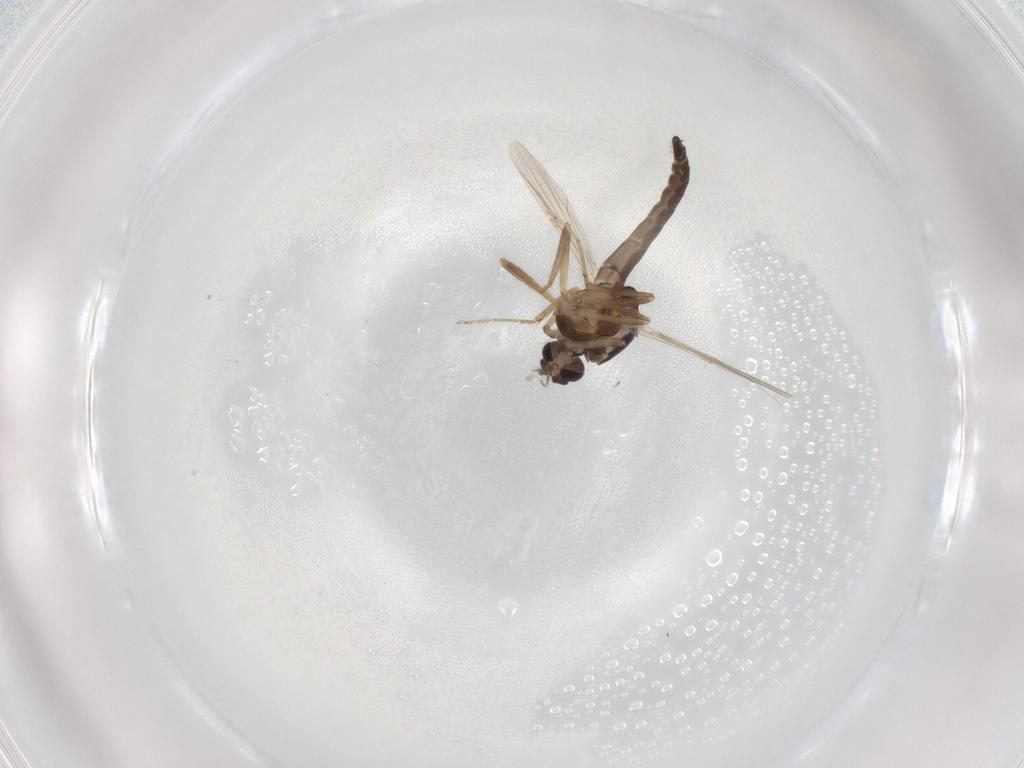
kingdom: Animalia
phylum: Arthropoda
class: Insecta
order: Diptera
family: Ceratopogonidae
